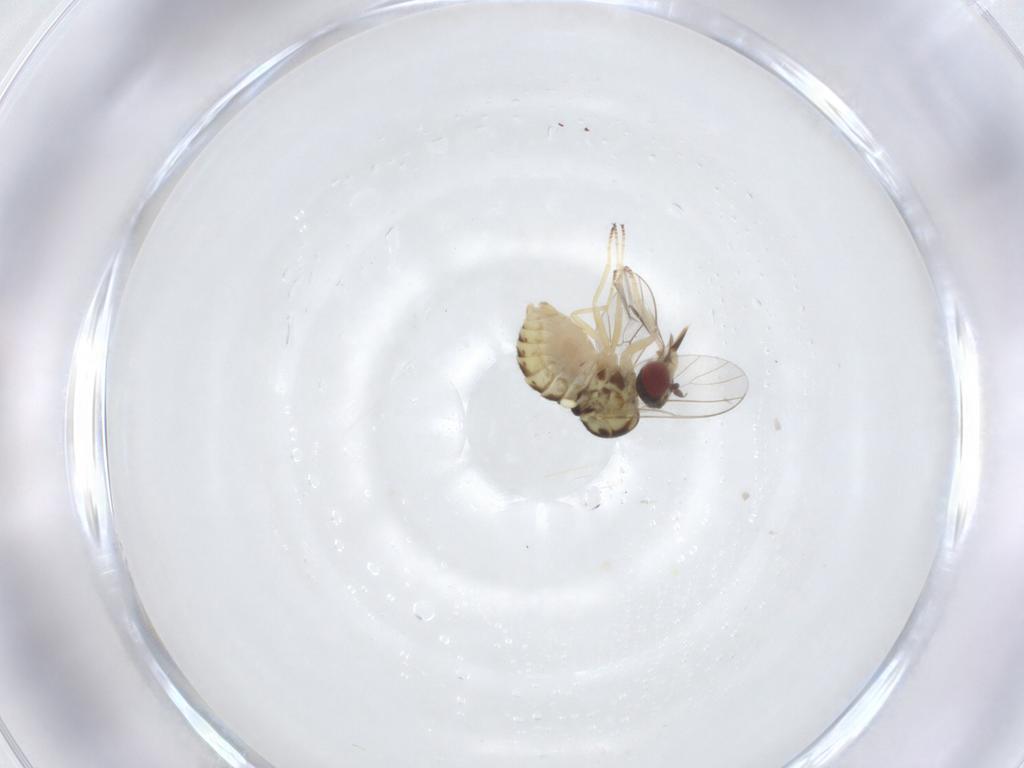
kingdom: Animalia
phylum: Arthropoda
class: Insecta
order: Diptera
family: Mythicomyiidae
